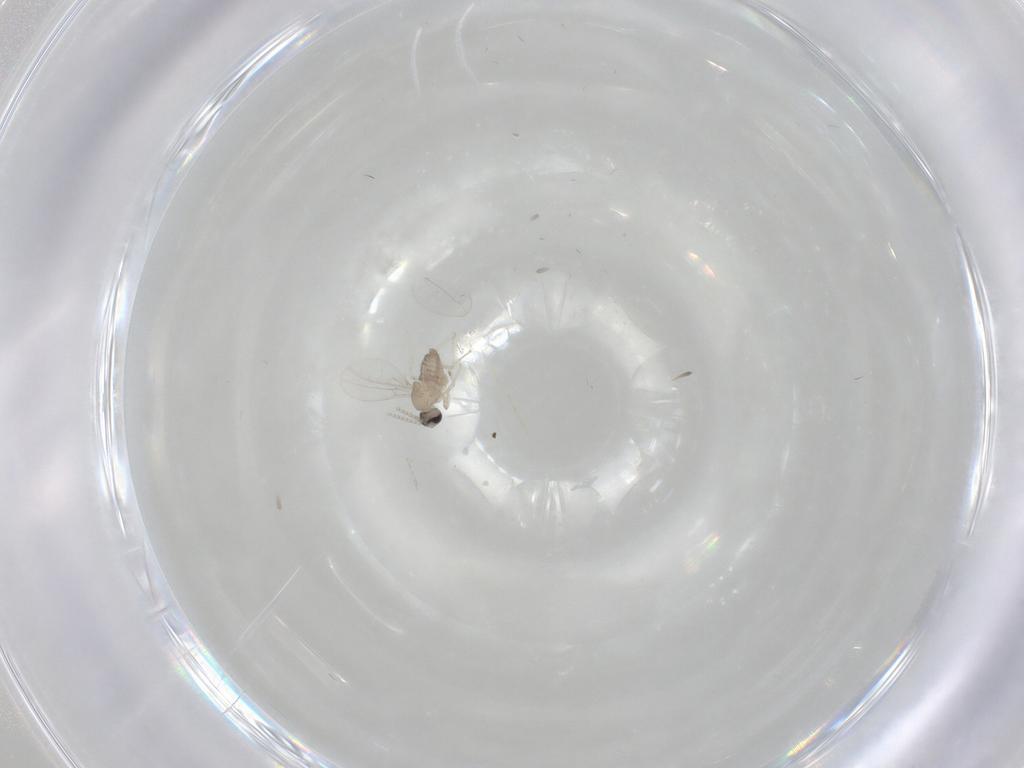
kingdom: Animalia
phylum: Arthropoda
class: Insecta
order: Diptera
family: Cecidomyiidae
